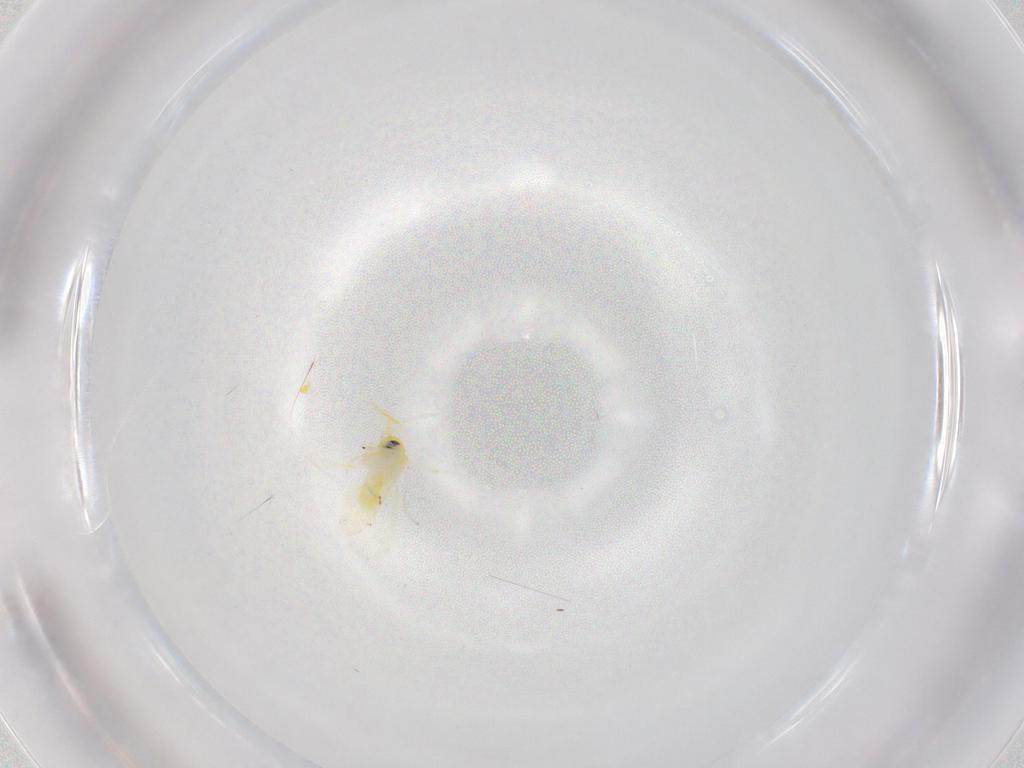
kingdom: Animalia
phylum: Arthropoda
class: Insecta
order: Hemiptera
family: Aleyrodidae
